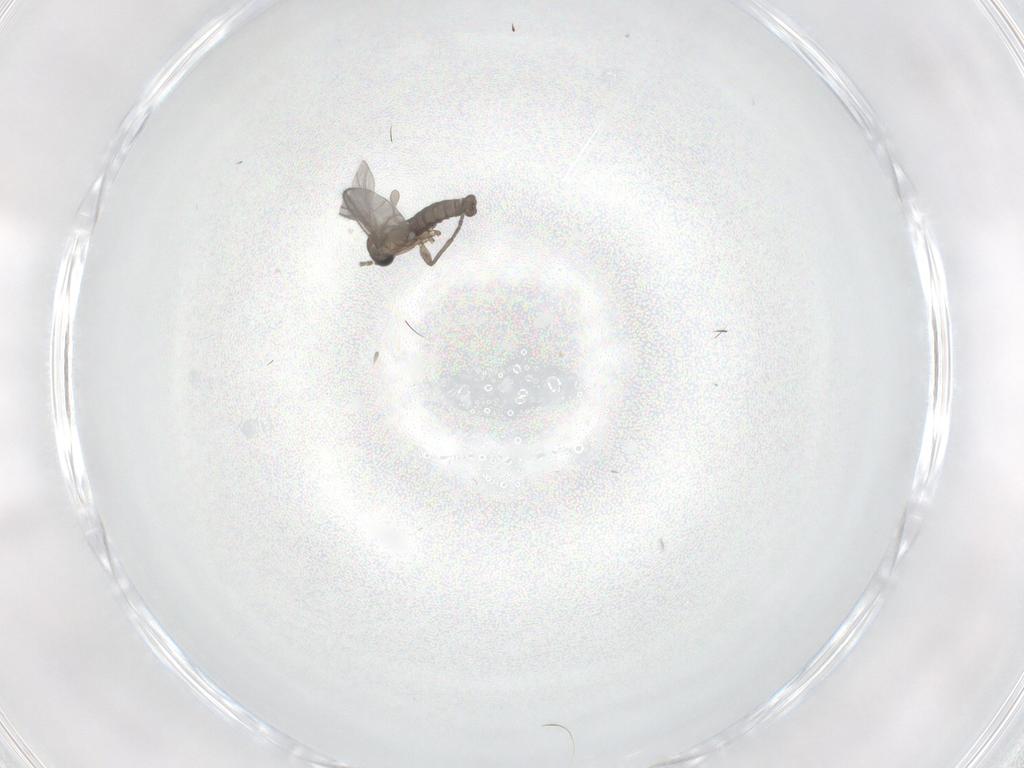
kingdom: Animalia
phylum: Arthropoda
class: Insecta
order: Diptera
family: Sciaridae
